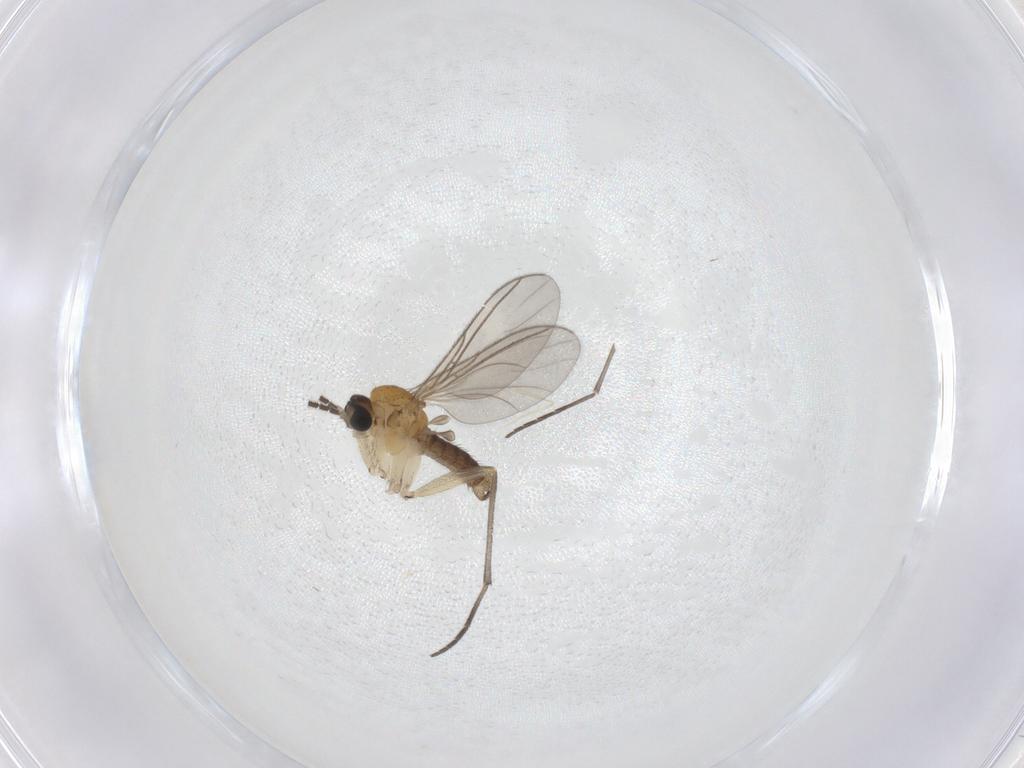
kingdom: Animalia
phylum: Arthropoda
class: Insecta
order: Diptera
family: Sciaridae
